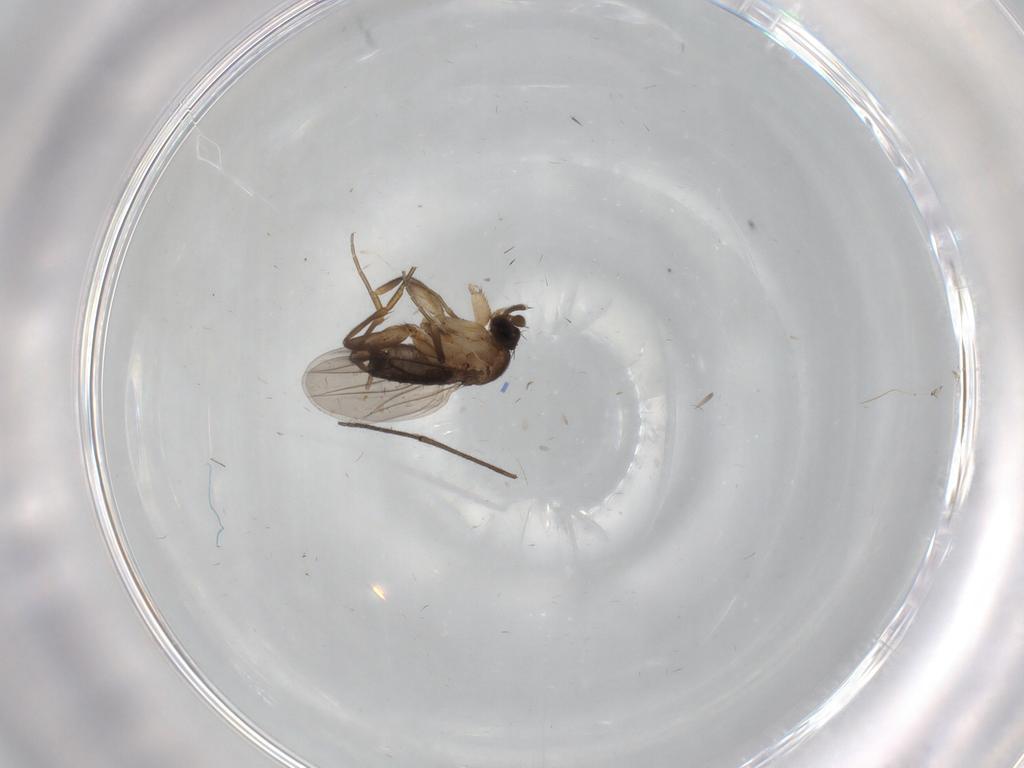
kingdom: Animalia
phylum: Arthropoda
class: Insecta
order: Diptera
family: Phoridae
